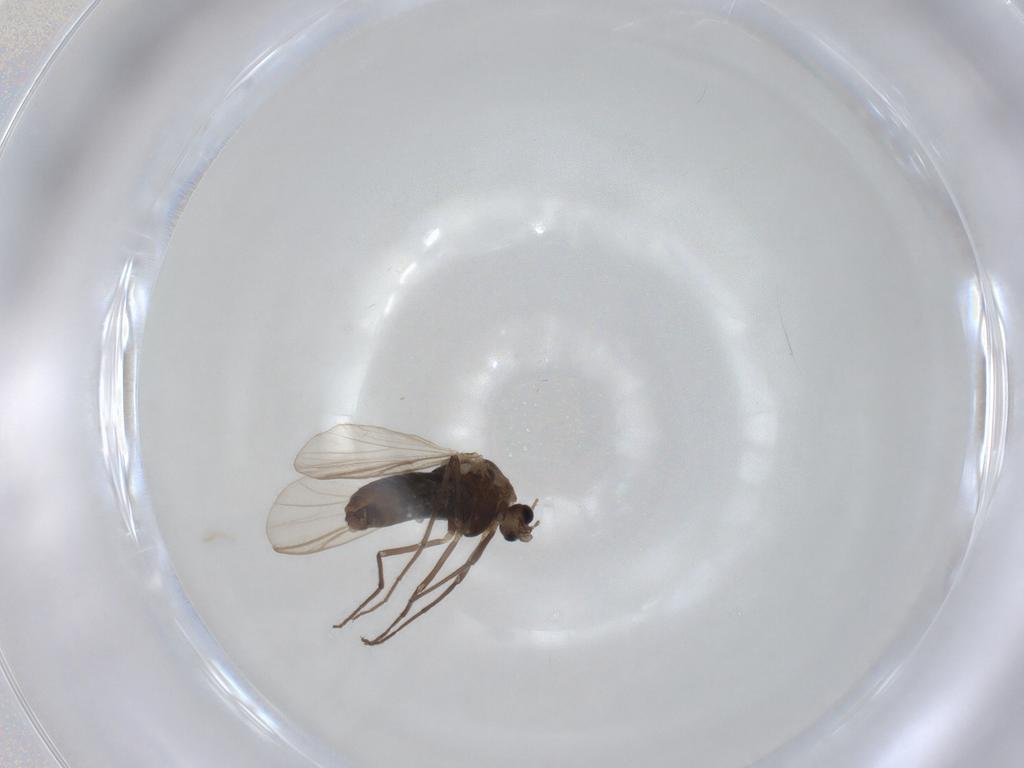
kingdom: Animalia
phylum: Arthropoda
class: Insecta
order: Diptera
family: Chironomidae
